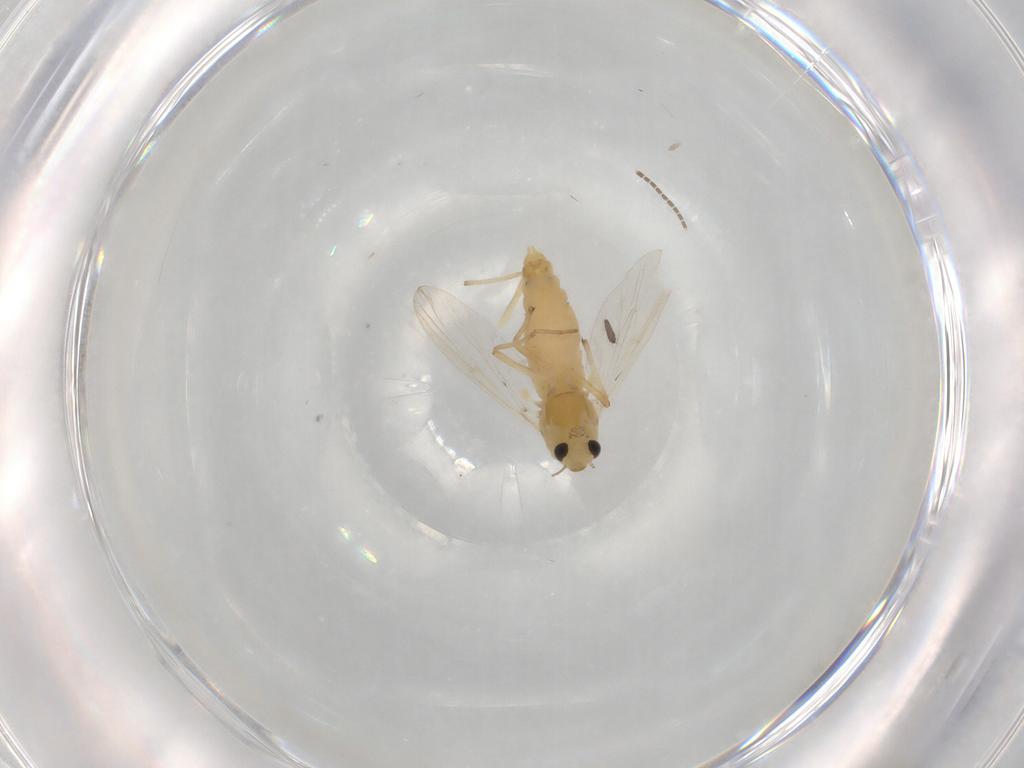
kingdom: Animalia
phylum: Arthropoda
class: Insecta
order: Diptera
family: Chironomidae
